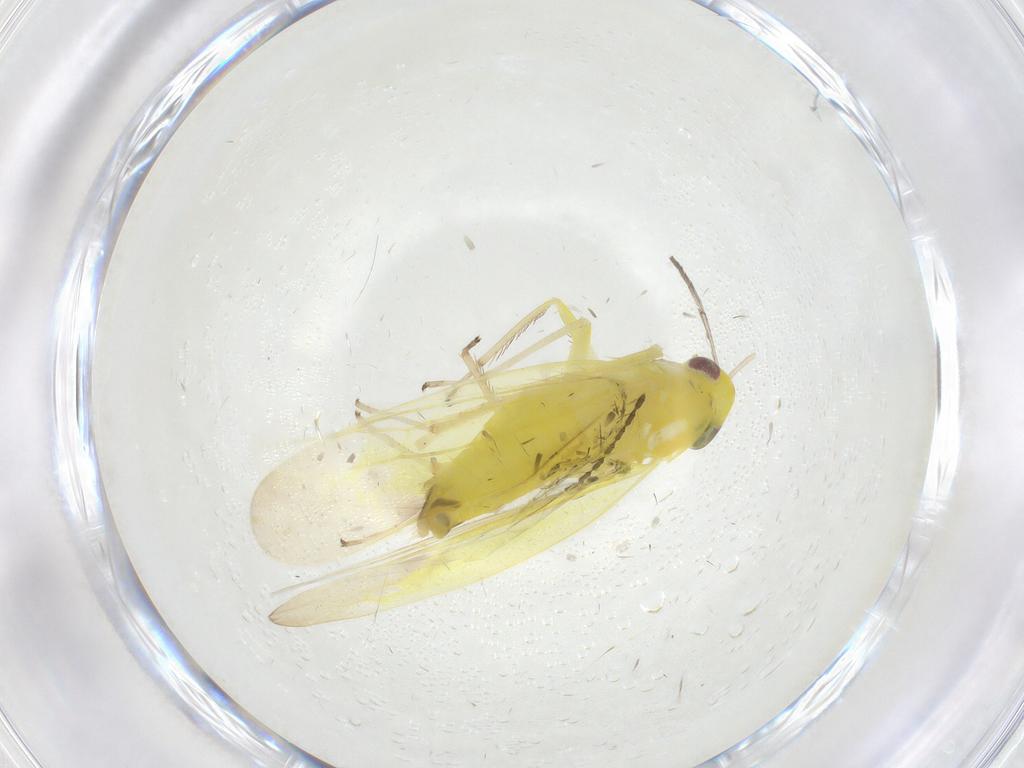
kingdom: Animalia
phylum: Arthropoda
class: Insecta
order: Hemiptera
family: Cicadellidae
